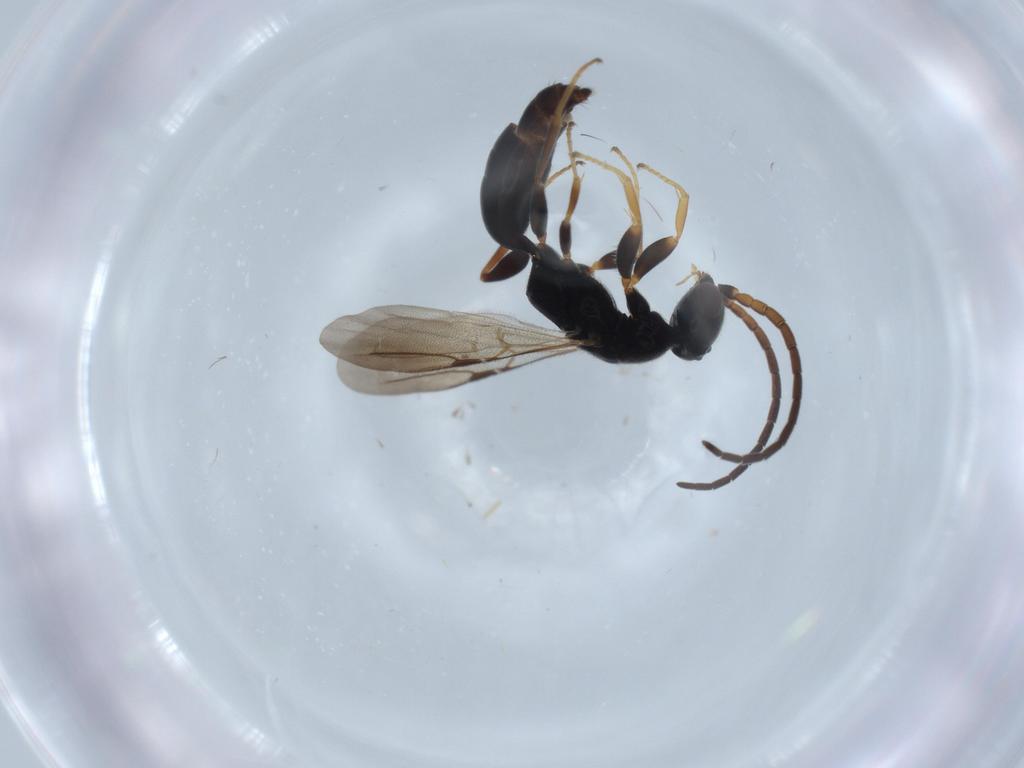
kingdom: Animalia
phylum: Arthropoda
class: Insecta
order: Hymenoptera
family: Bethylidae
